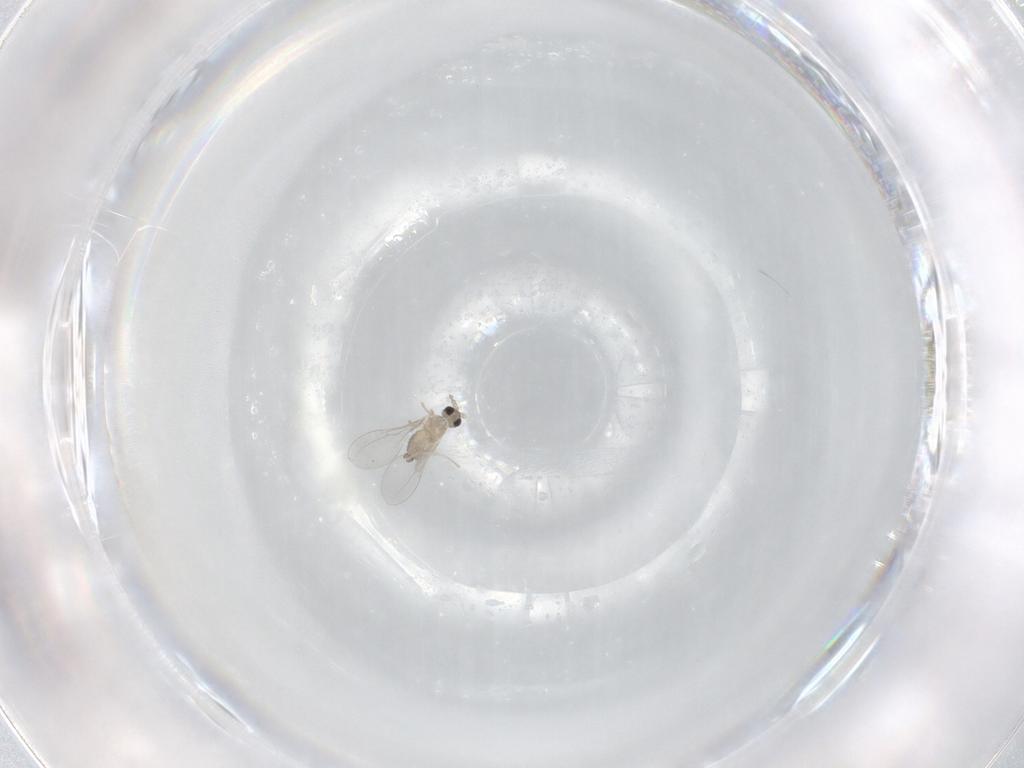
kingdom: Animalia
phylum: Arthropoda
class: Insecta
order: Diptera
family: Cecidomyiidae
